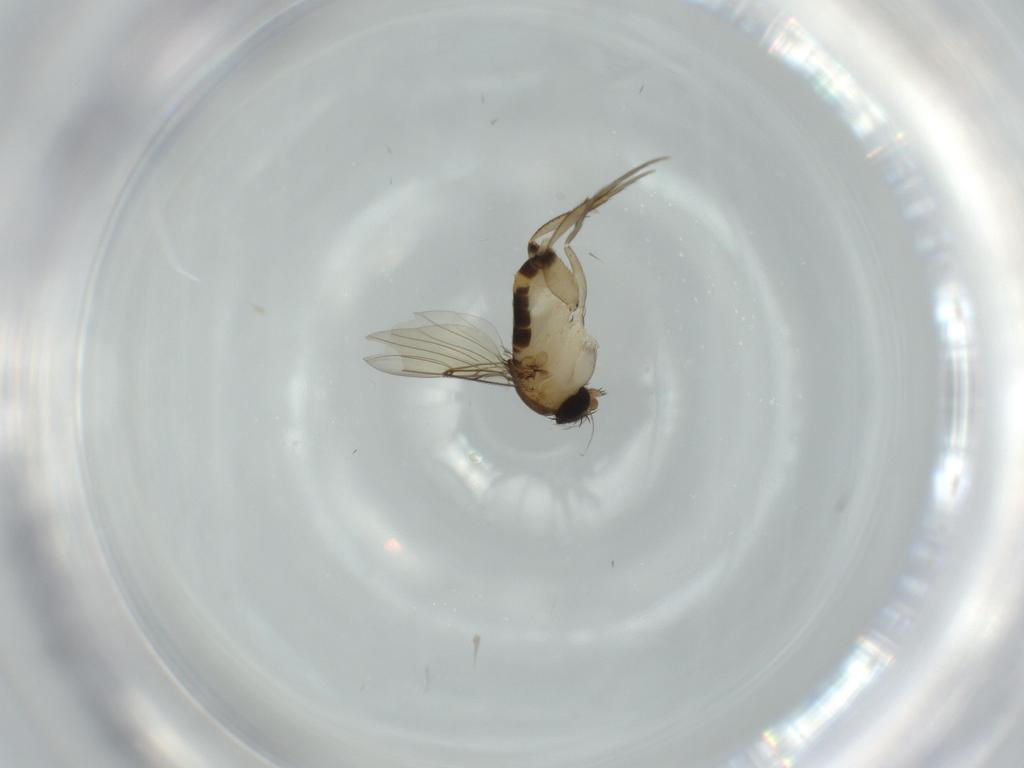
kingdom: Animalia
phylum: Arthropoda
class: Insecta
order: Diptera
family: Phoridae
